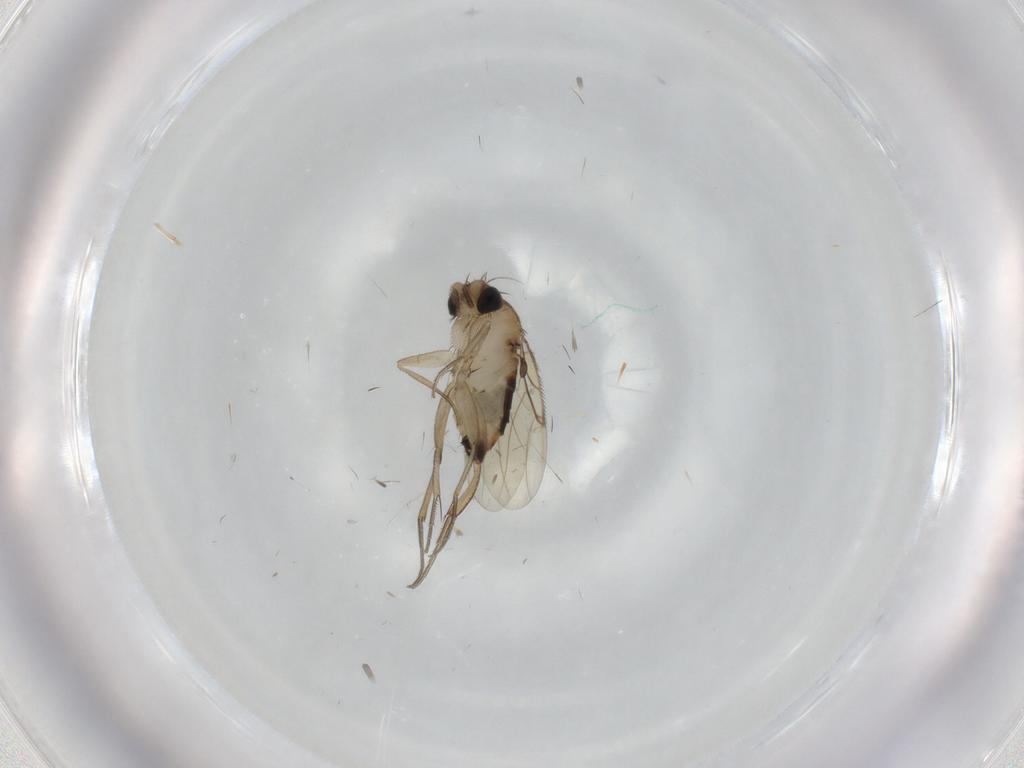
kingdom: Animalia
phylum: Arthropoda
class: Insecta
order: Diptera
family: Phoridae
